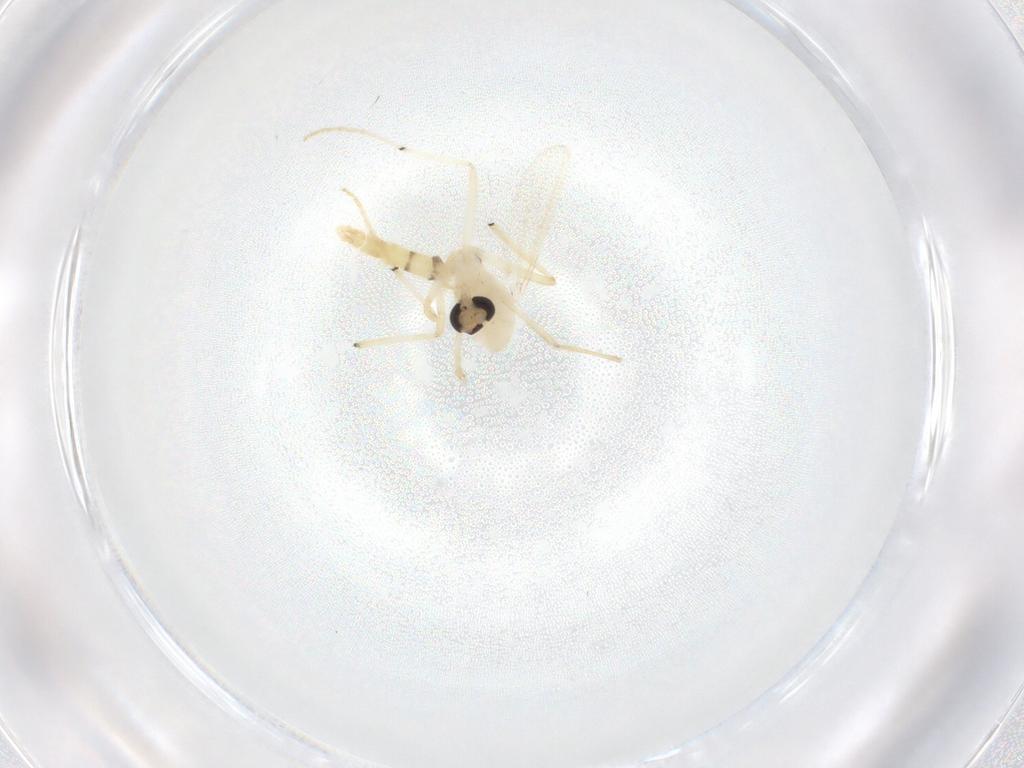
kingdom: Animalia
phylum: Arthropoda
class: Insecta
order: Diptera
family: Chironomidae
